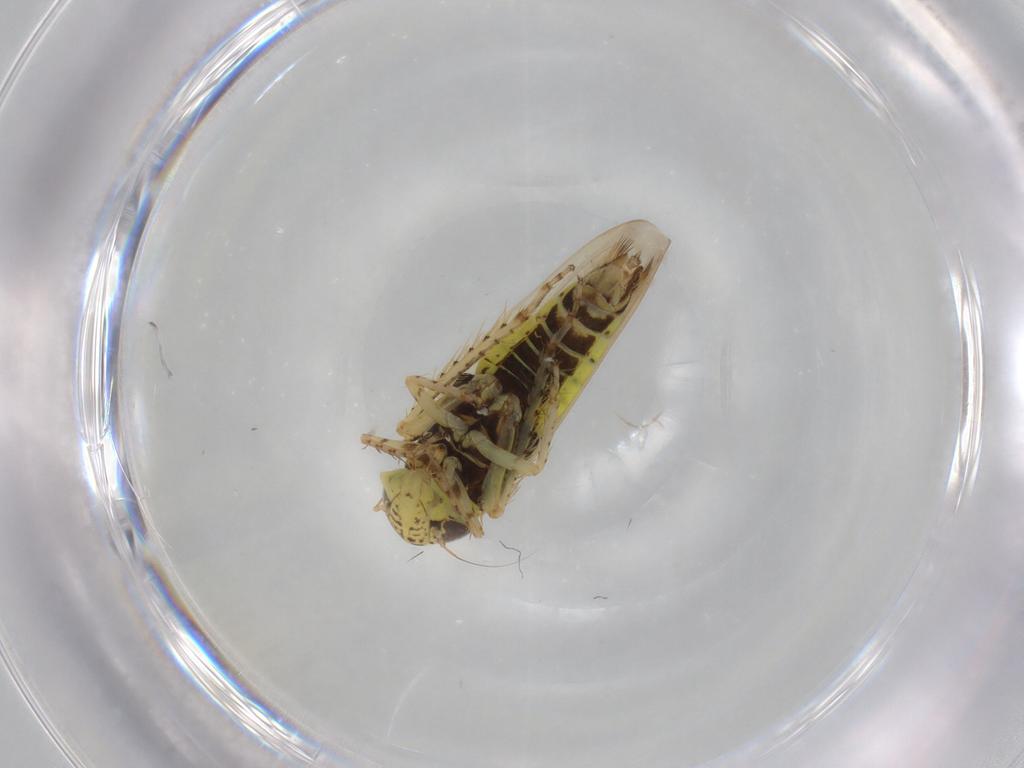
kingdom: Animalia
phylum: Arthropoda
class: Insecta
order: Hemiptera
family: Cicadellidae
